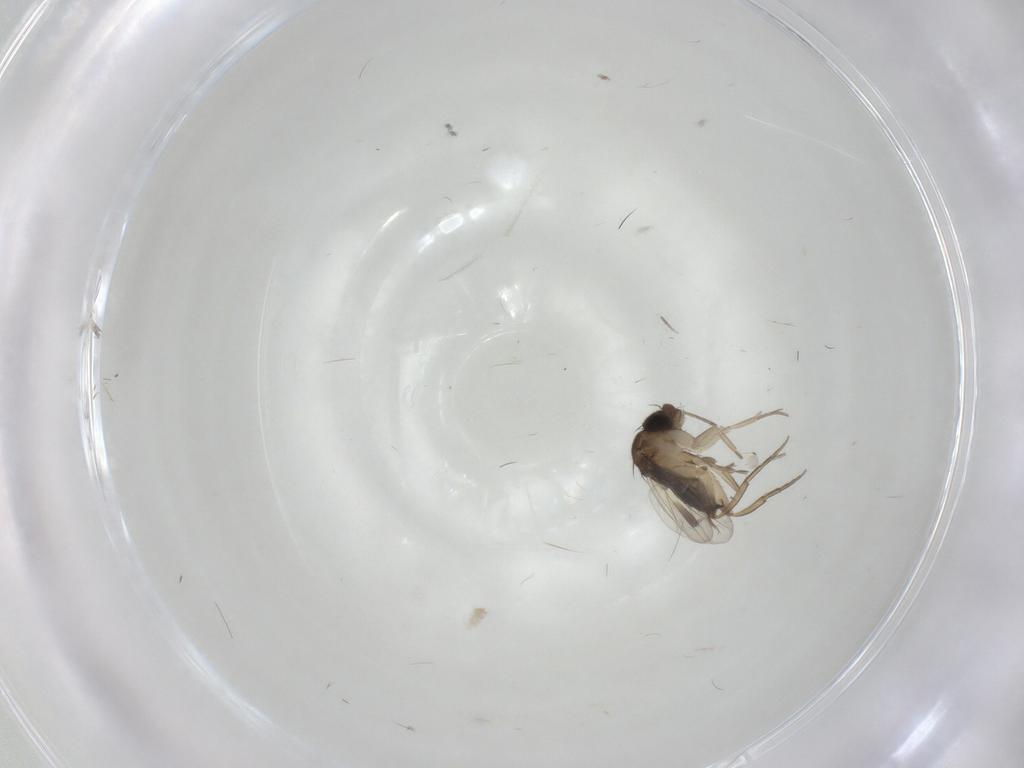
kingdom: Animalia
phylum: Arthropoda
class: Insecta
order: Diptera
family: Phoridae
